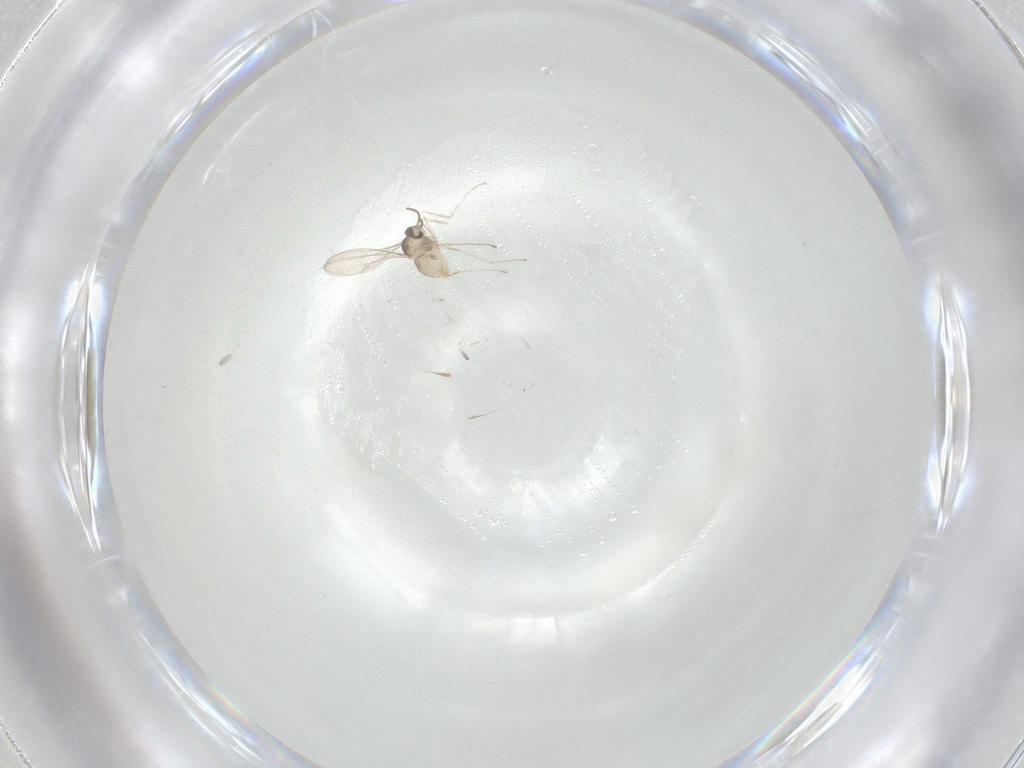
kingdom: Animalia
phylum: Arthropoda
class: Insecta
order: Diptera
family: Cecidomyiidae
